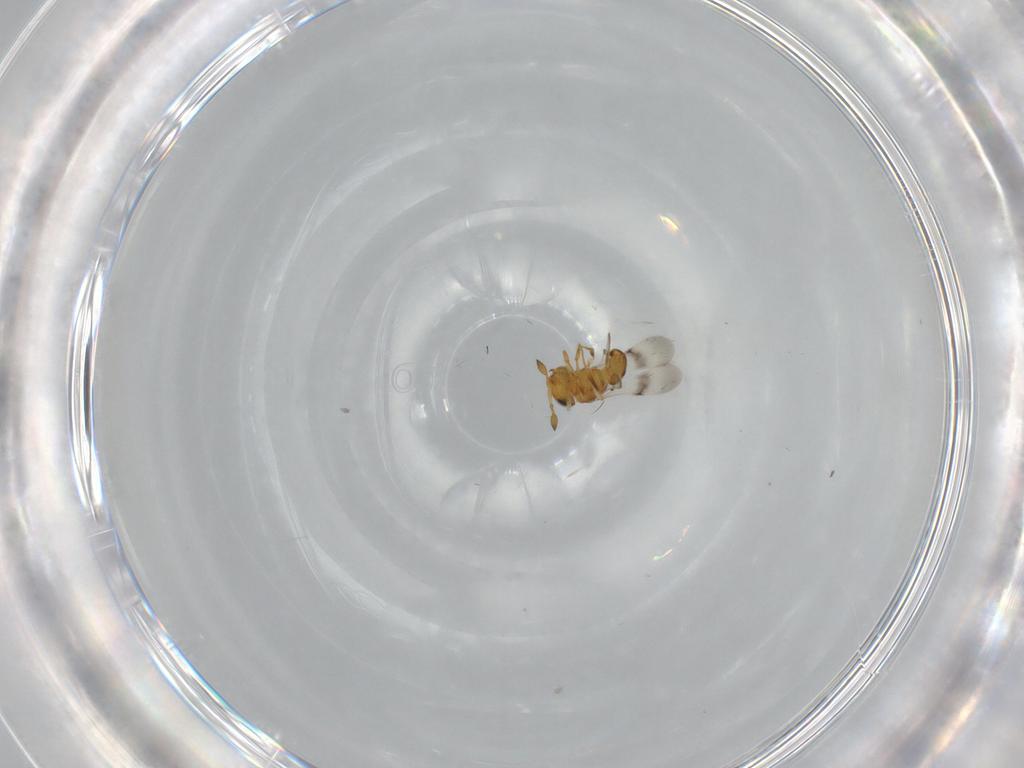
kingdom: Animalia
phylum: Arthropoda
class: Insecta
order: Hymenoptera
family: Scelionidae
